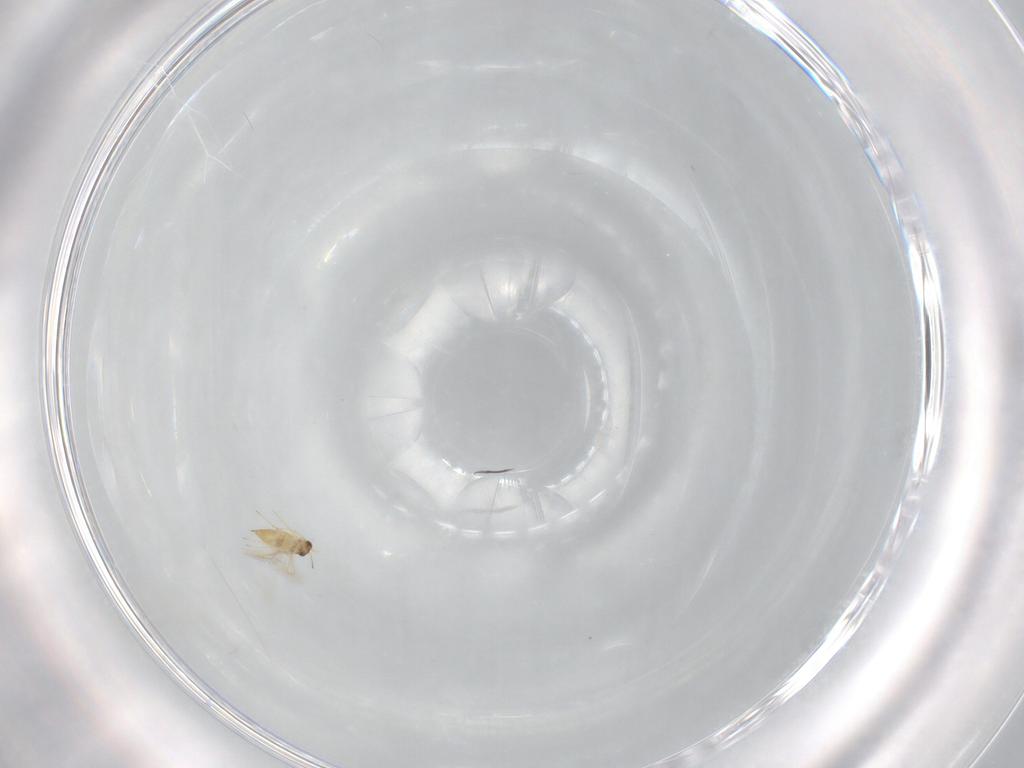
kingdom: Animalia
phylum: Arthropoda
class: Insecta
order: Hymenoptera
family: Mymaridae
